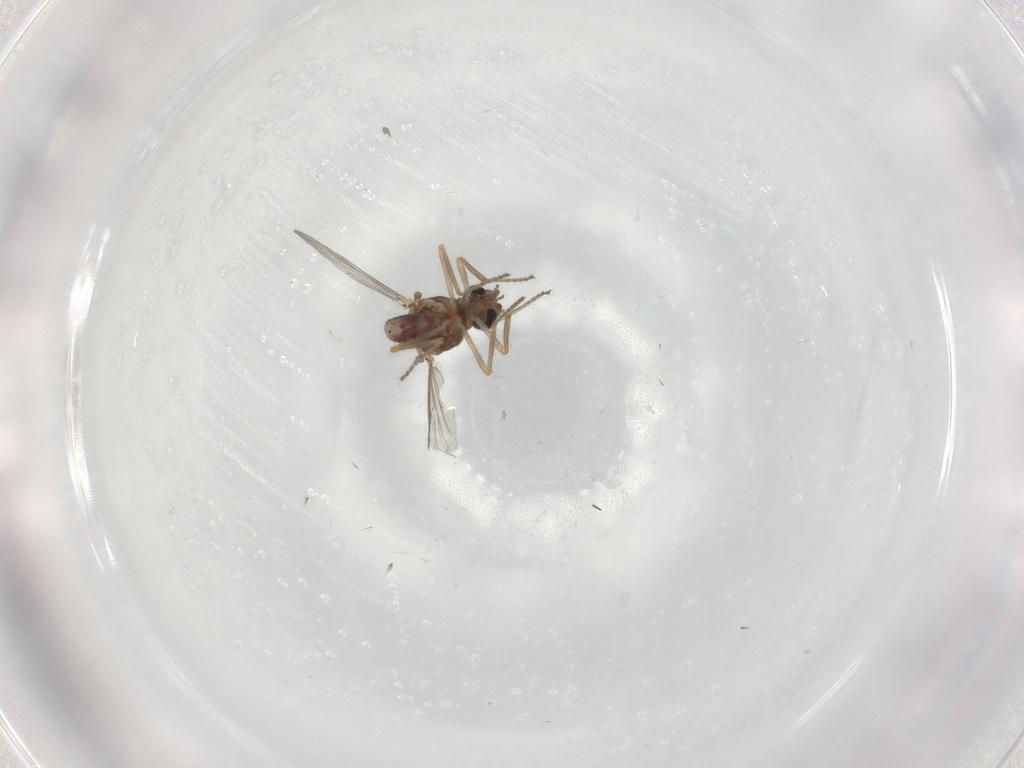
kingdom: Animalia
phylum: Arthropoda
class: Insecta
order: Diptera
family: Ceratopogonidae
